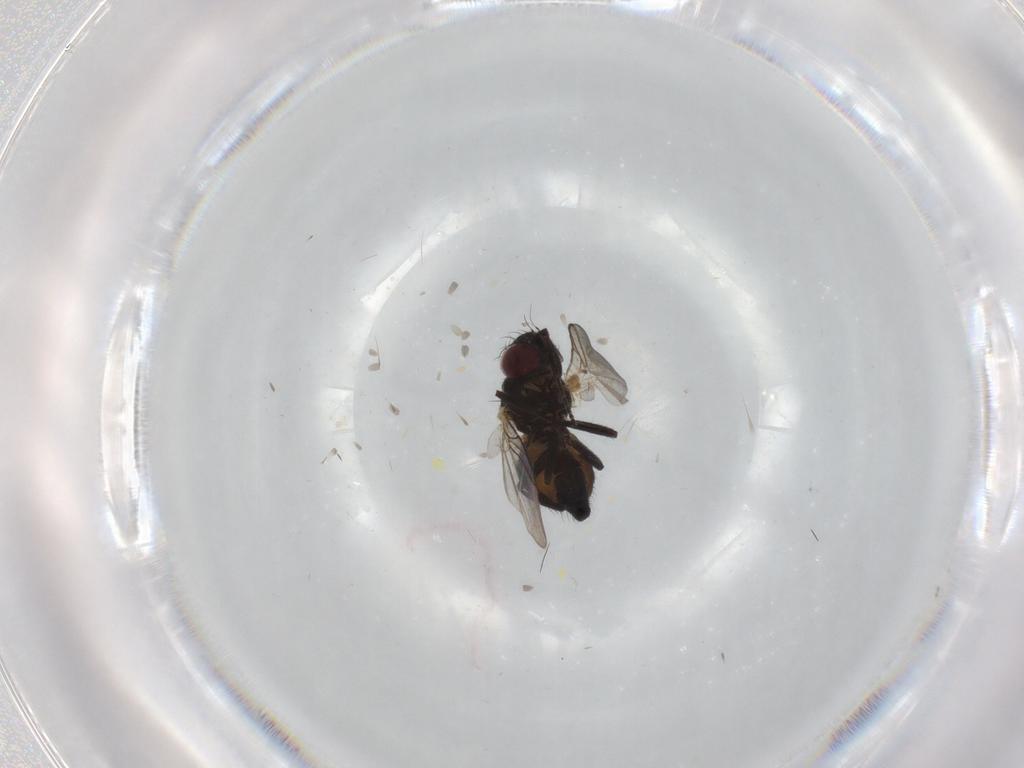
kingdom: Animalia
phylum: Arthropoda
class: Insecta
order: Diptera
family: Agromyzidae
